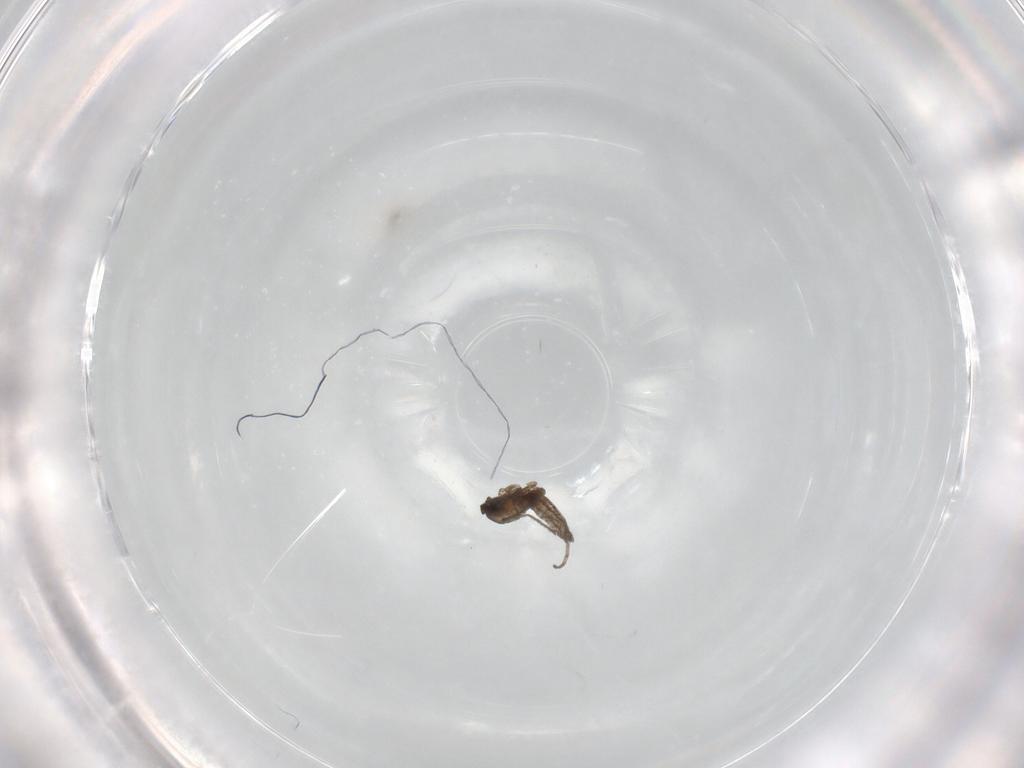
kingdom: Animalia
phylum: Arthropoda
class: Insecta
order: Diptera
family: Cecidomyiidae
